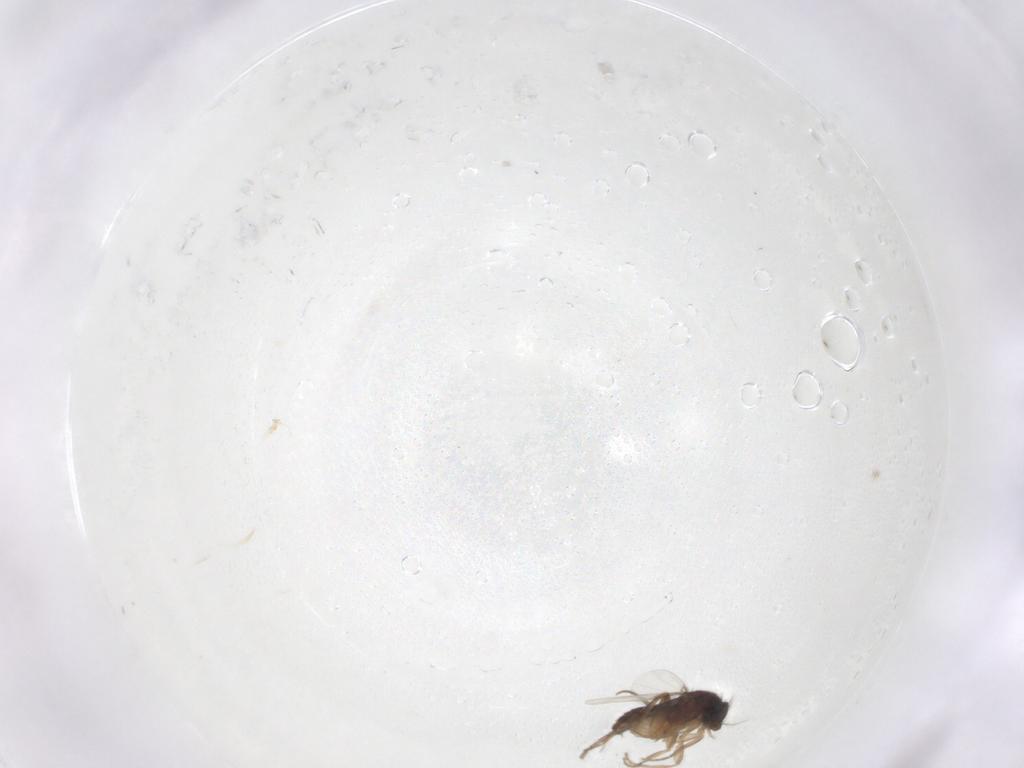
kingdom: Animalia
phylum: Arthropoda
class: Insecta
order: Diptera
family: Phoridae
